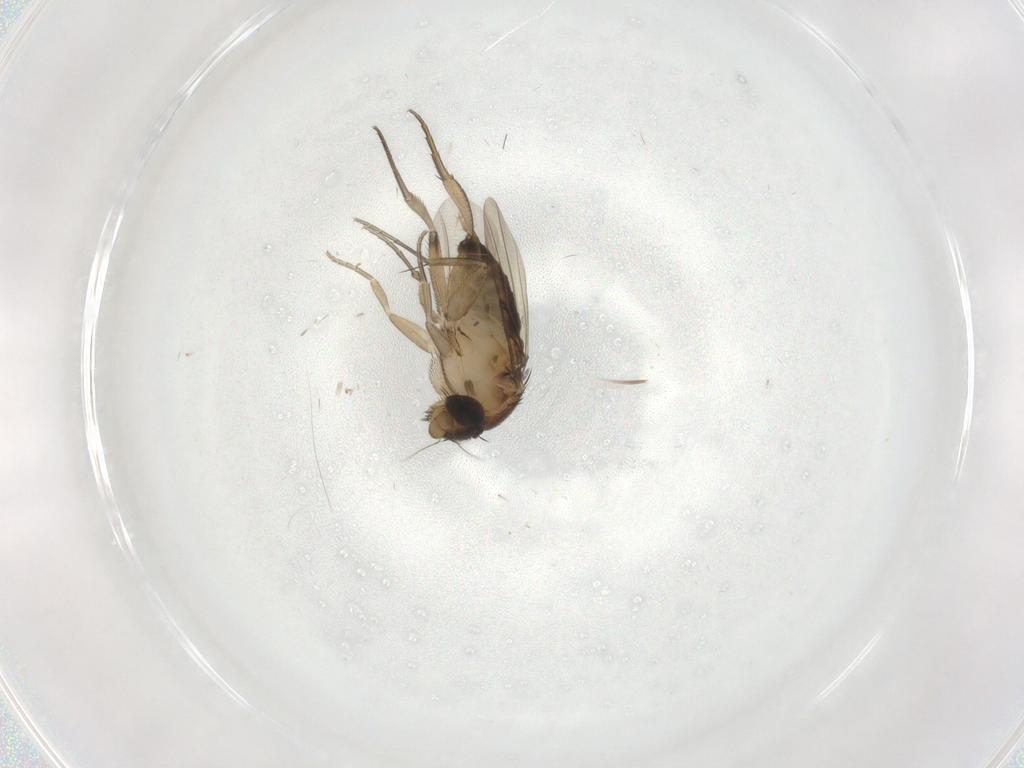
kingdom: Animalia
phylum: Arthropoda
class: Insecta
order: Diptera
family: Phoridae
